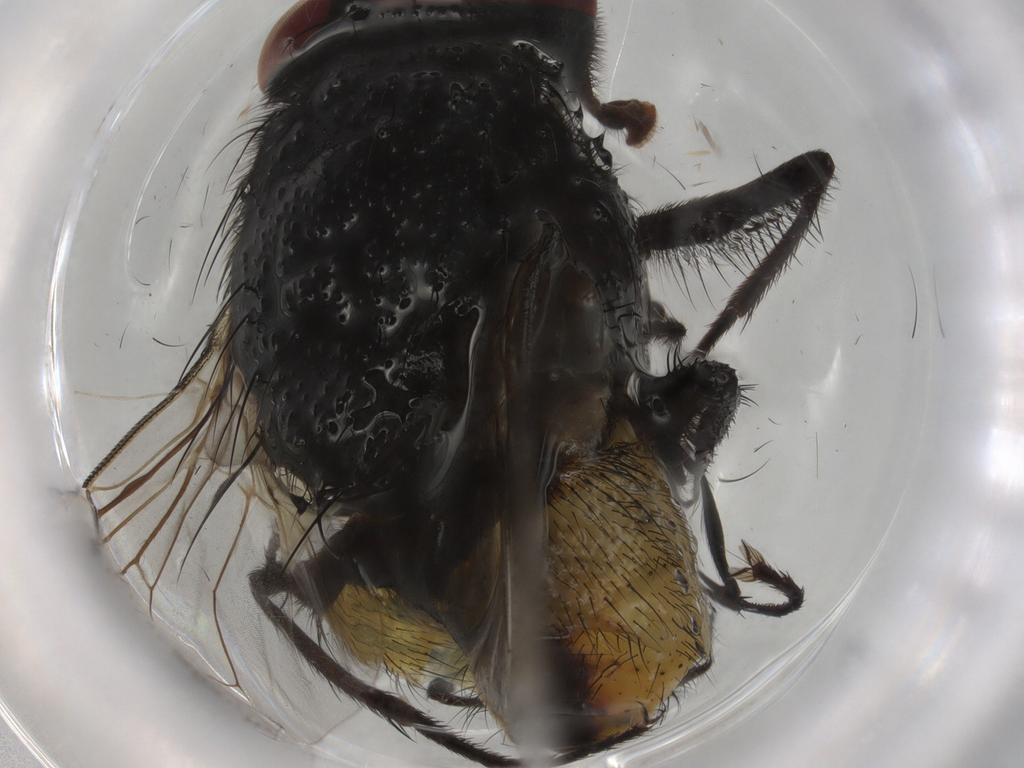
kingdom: Animalia
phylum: Arthropoda
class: Insecta
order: Diptera
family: Muscidae
